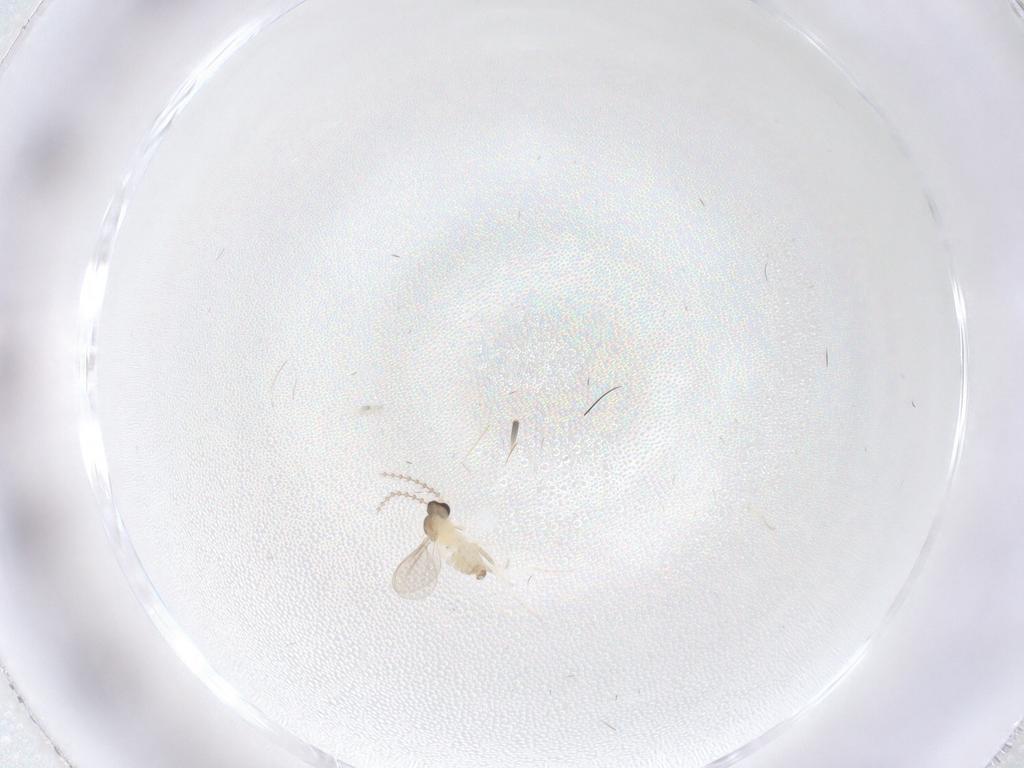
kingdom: Animalia
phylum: Arthropoda
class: Insecta
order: Diptera
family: Cecidomyiidae
